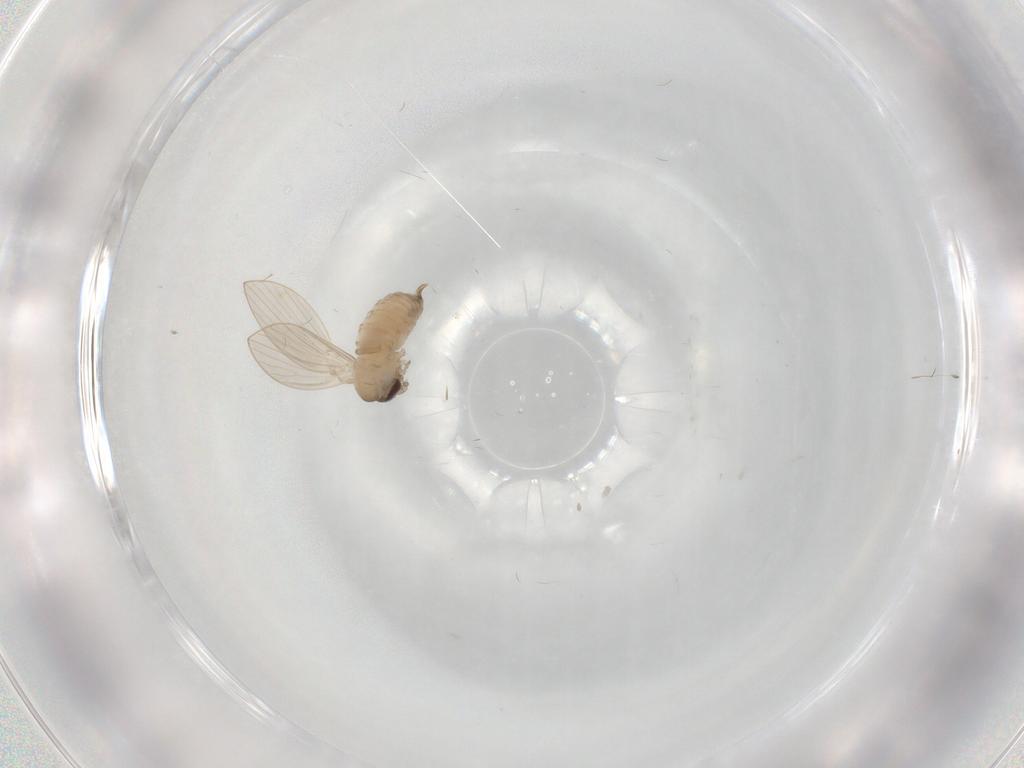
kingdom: Animalia
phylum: Arthropoda
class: Insecta
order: Diptera
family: Psychodidae
